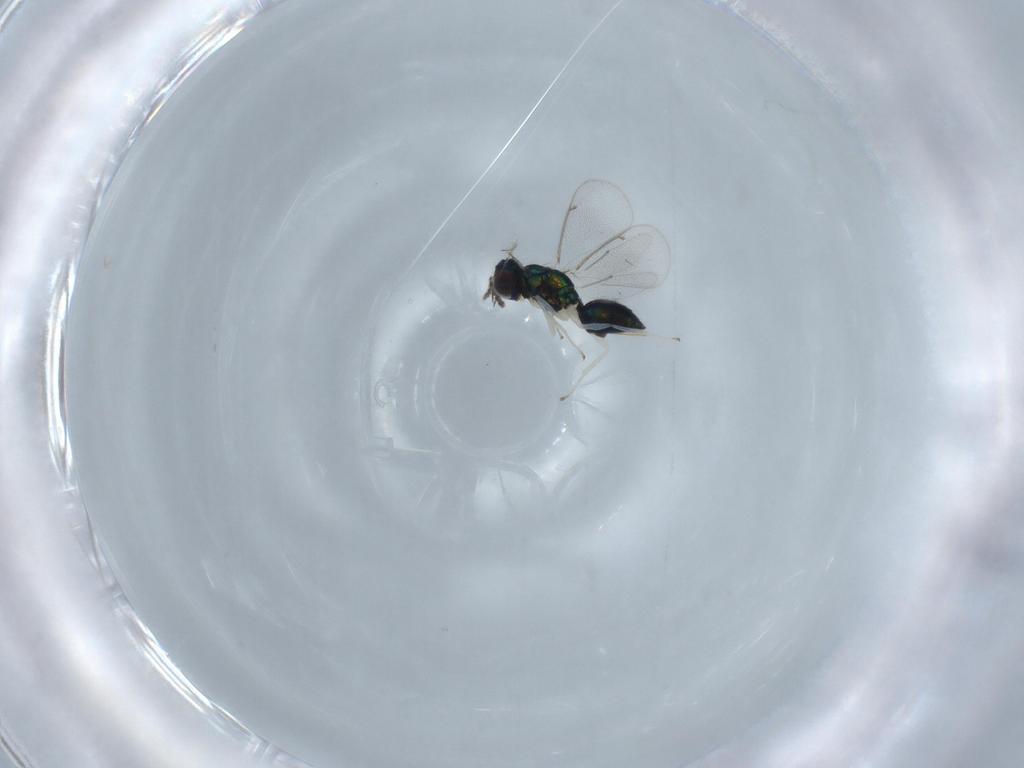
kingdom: Animalia
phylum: Arthropoda
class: Insecta
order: Hymenoptera
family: Eulophidae
